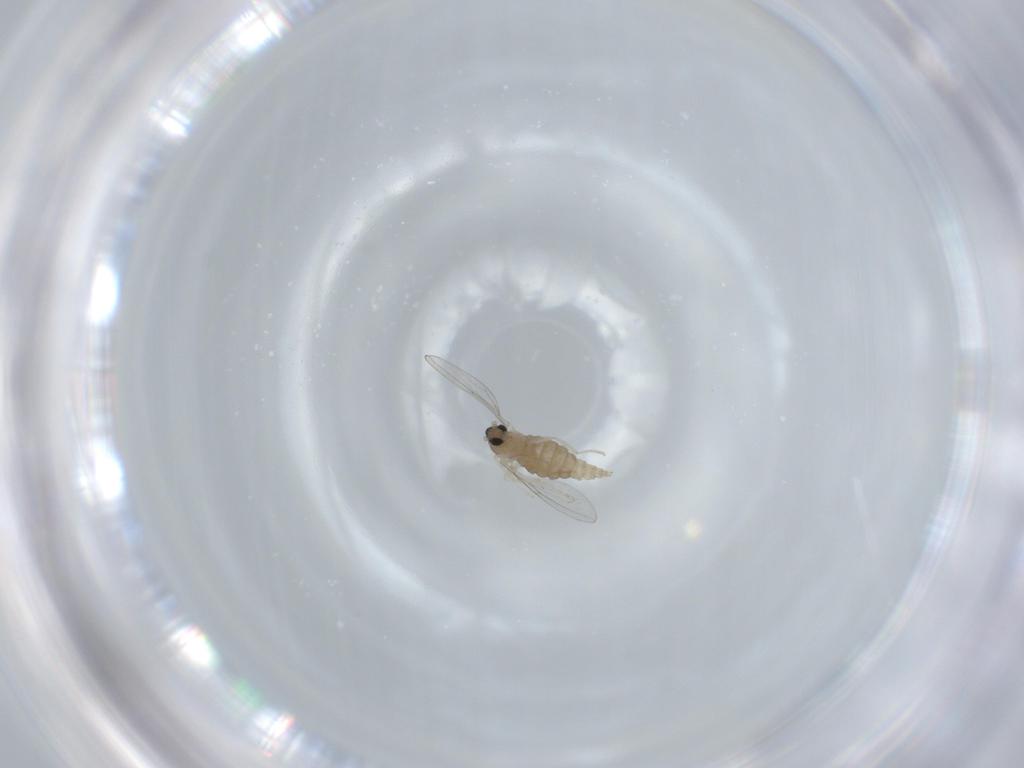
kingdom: Animalia
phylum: Arthropoda
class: Insecta
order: Diptera
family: Cecidomyiidae
